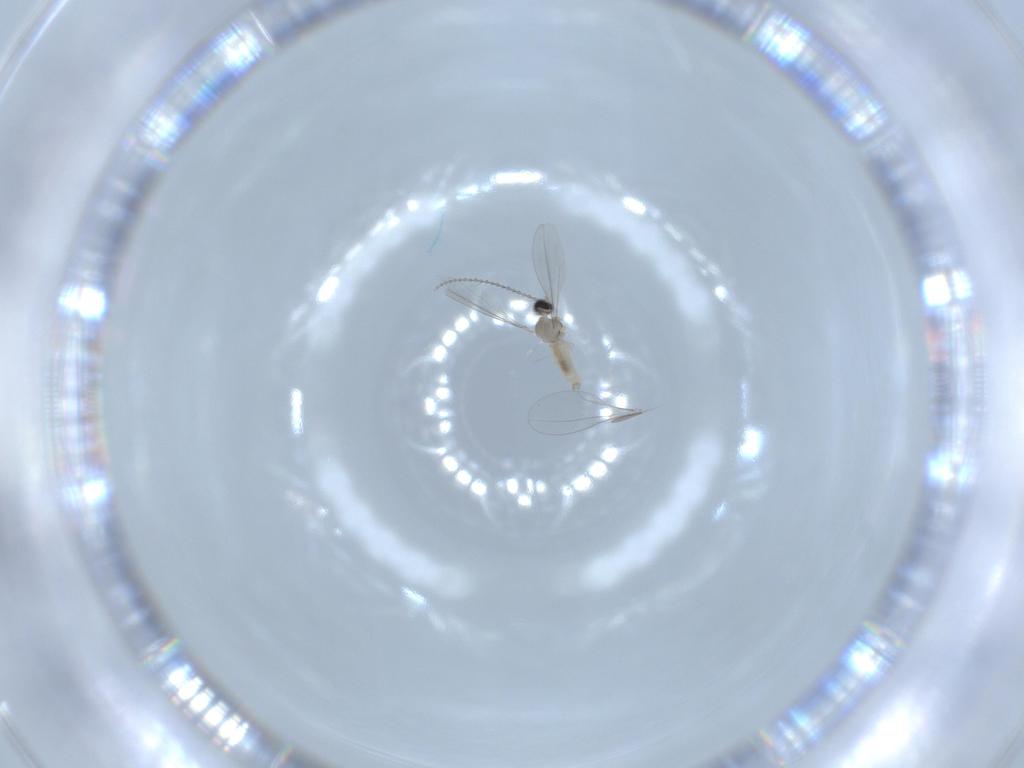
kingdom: Animalia
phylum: Arthropoda
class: Insecta
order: Diptera
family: Cecidomyiidae
